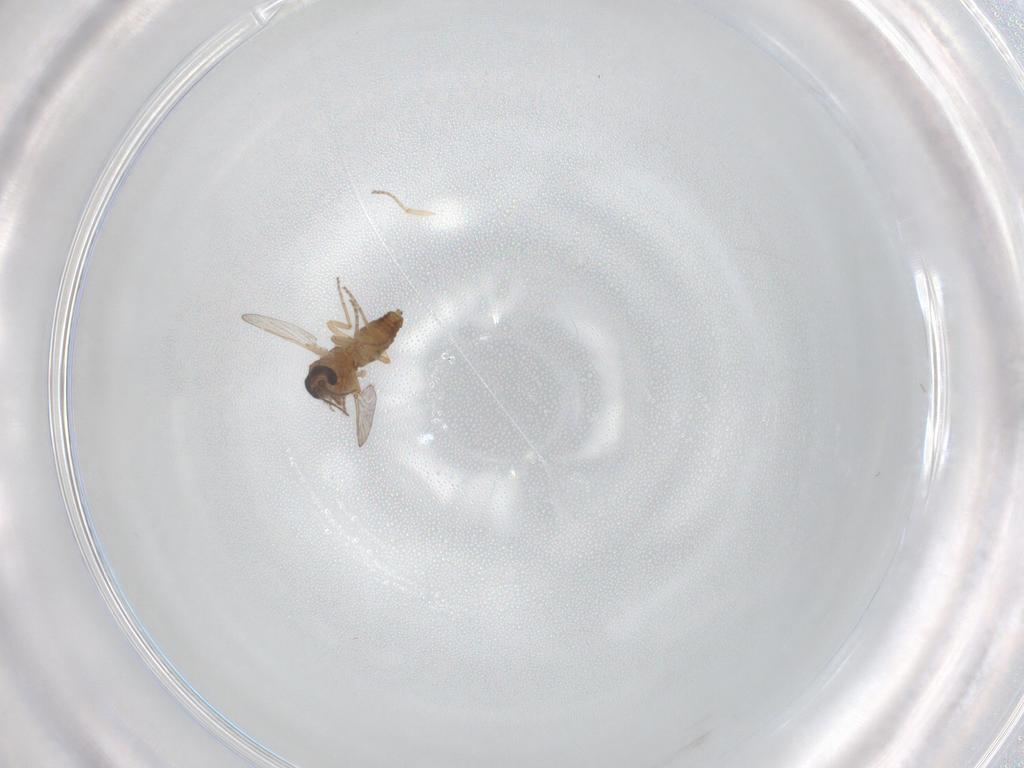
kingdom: Animalia
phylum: Arthropoda
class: Insecta
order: Diptera
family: Ceratopogonidae
